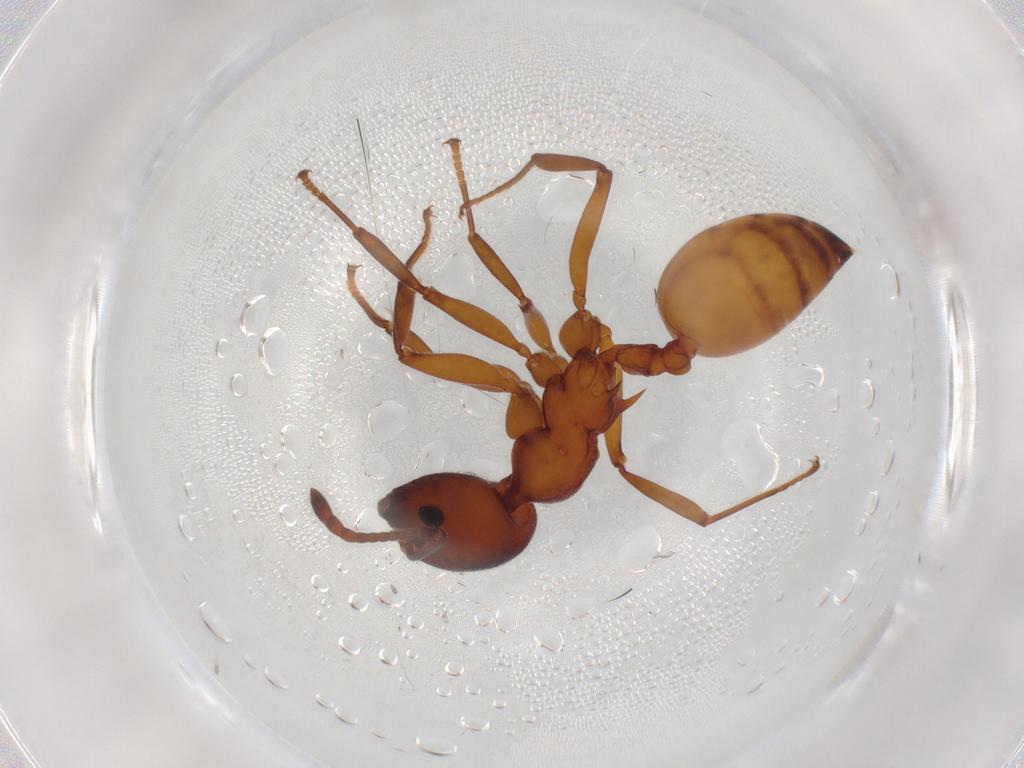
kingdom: Animalia
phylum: Arthropoda
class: Insecta
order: Hymenoptera
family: Formicidae
